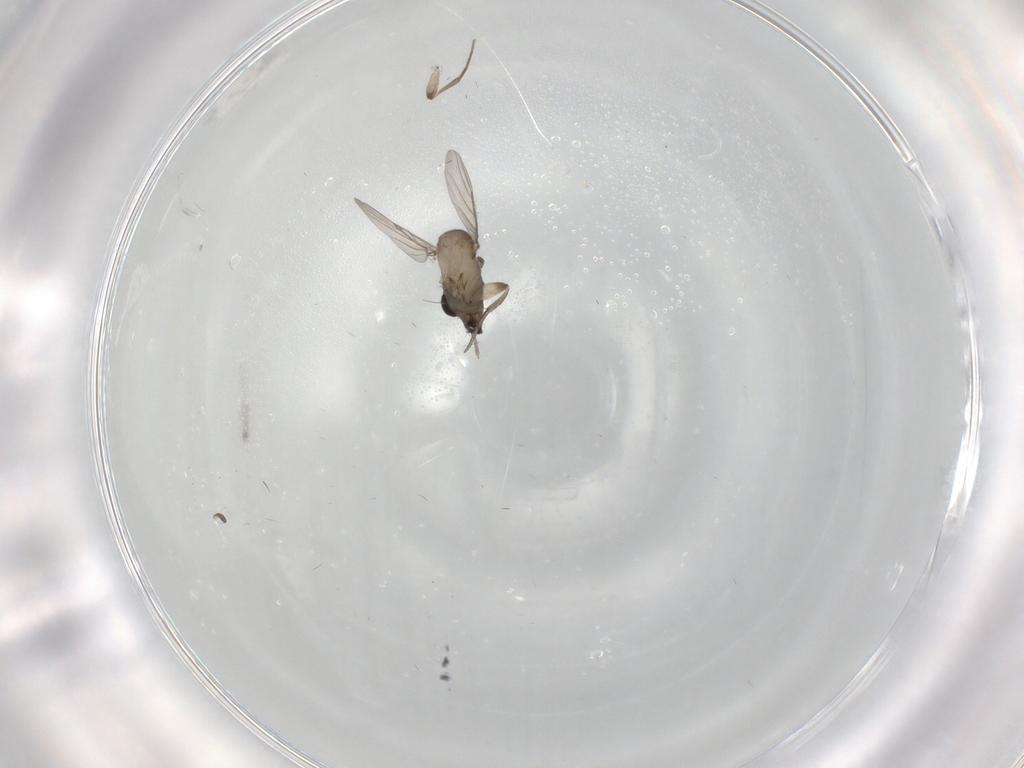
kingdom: Animalia
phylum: Arthropoda
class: Insecta
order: Diptera
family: Phoridae
